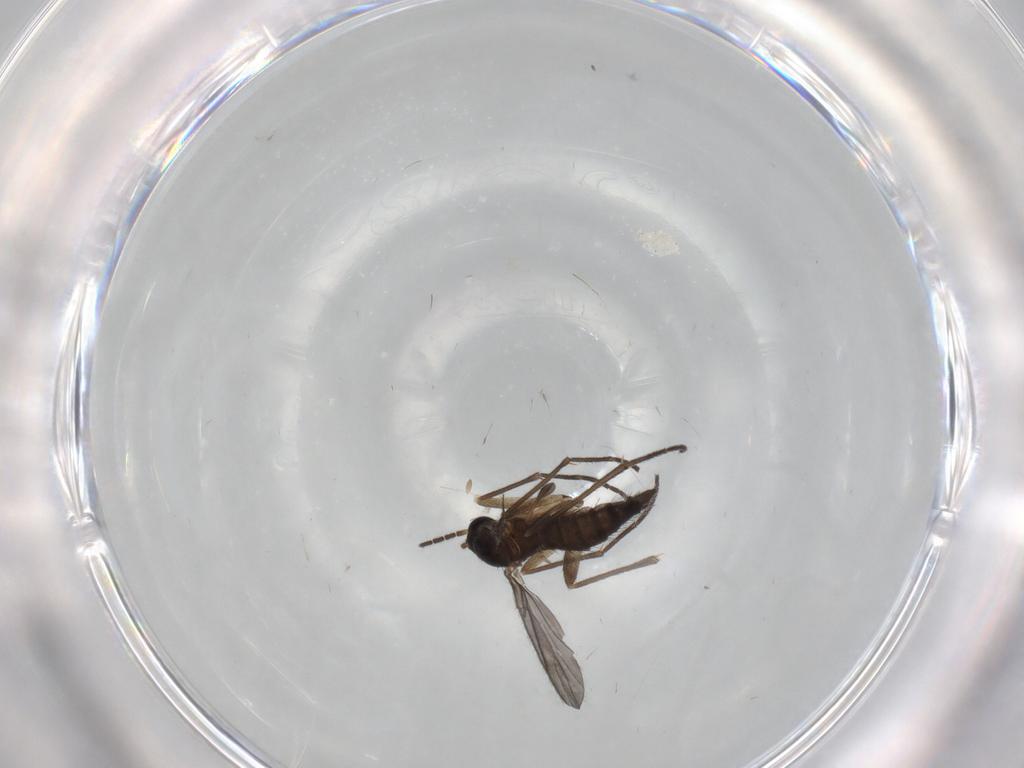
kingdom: Animalia
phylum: Arthropoda
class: Insecta
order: Diptera
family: Sciaridae
